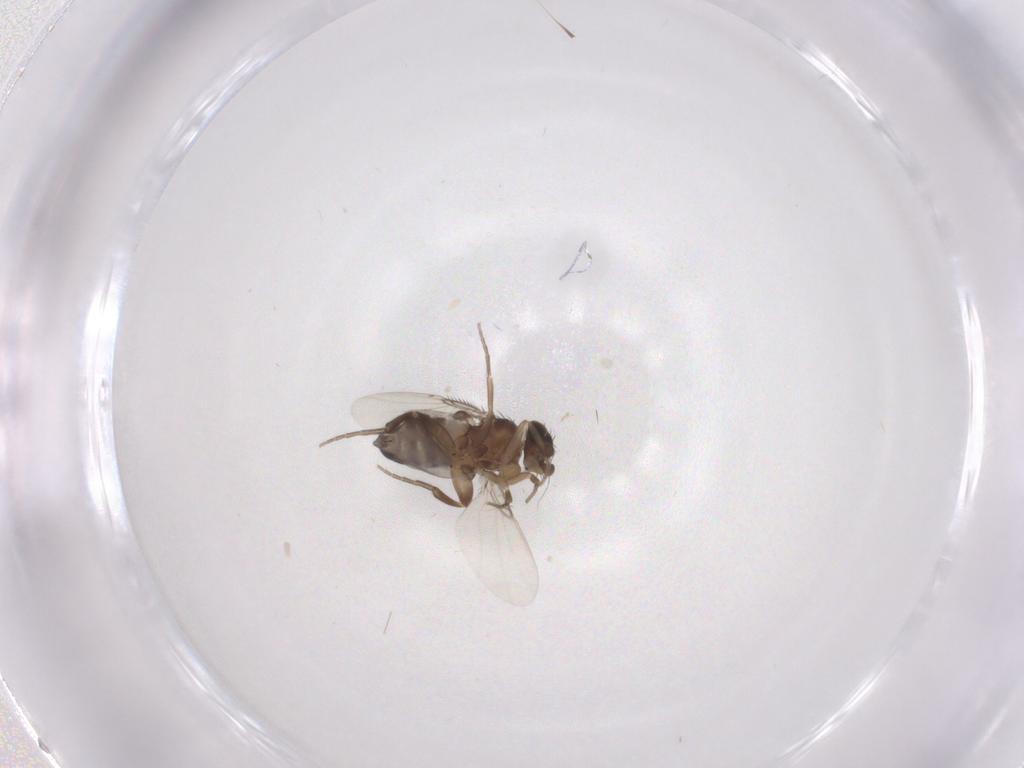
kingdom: Animalia
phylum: Arthropoda
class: Insecta
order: Diptera
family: Phoridae
